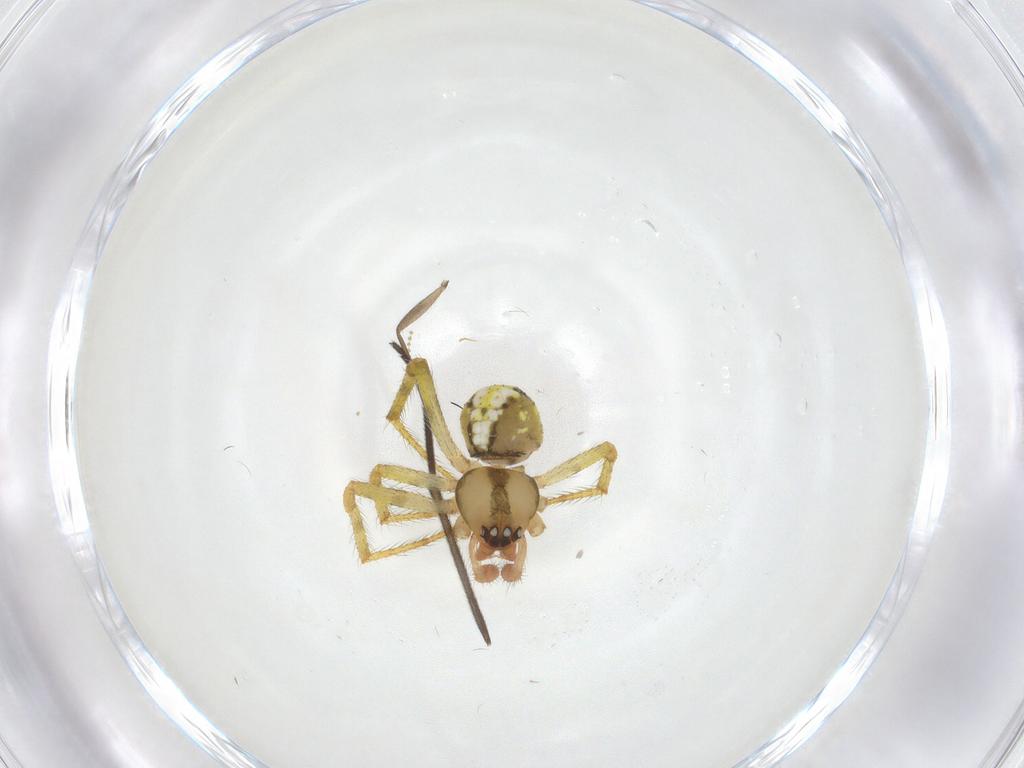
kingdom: Animalia
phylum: Arthropoda
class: Arachnida
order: Araneae
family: Theridiidae
